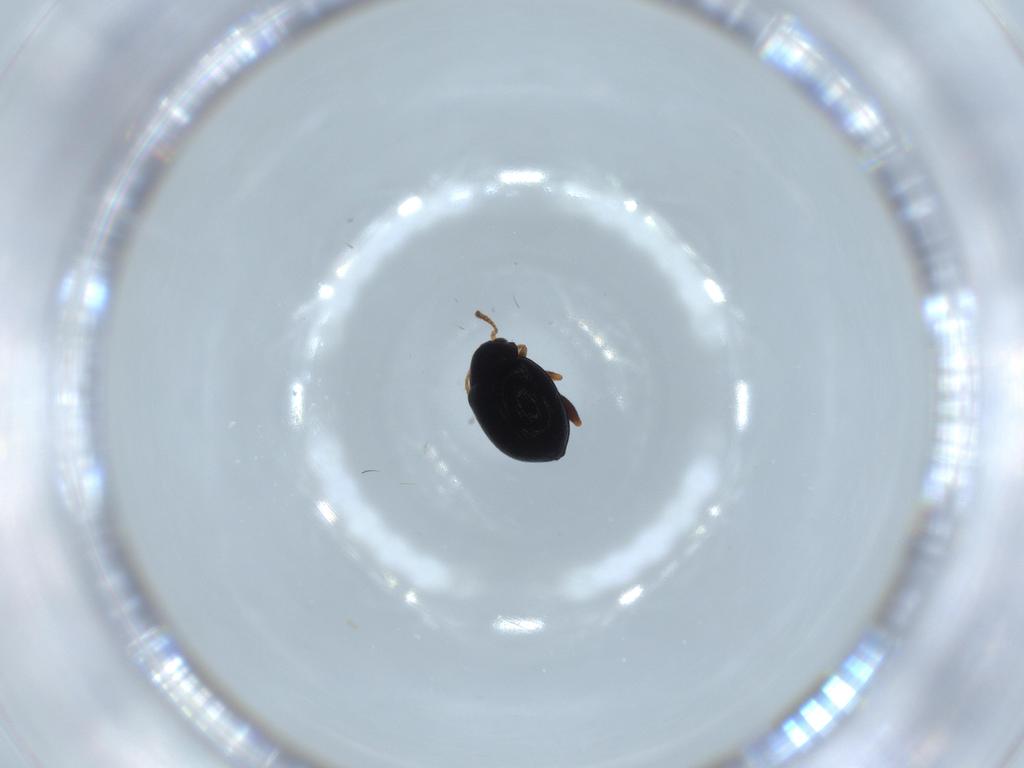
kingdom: Animalia
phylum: Arthropoda
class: Insecta
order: Coleoptera
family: Chrysomelidae
